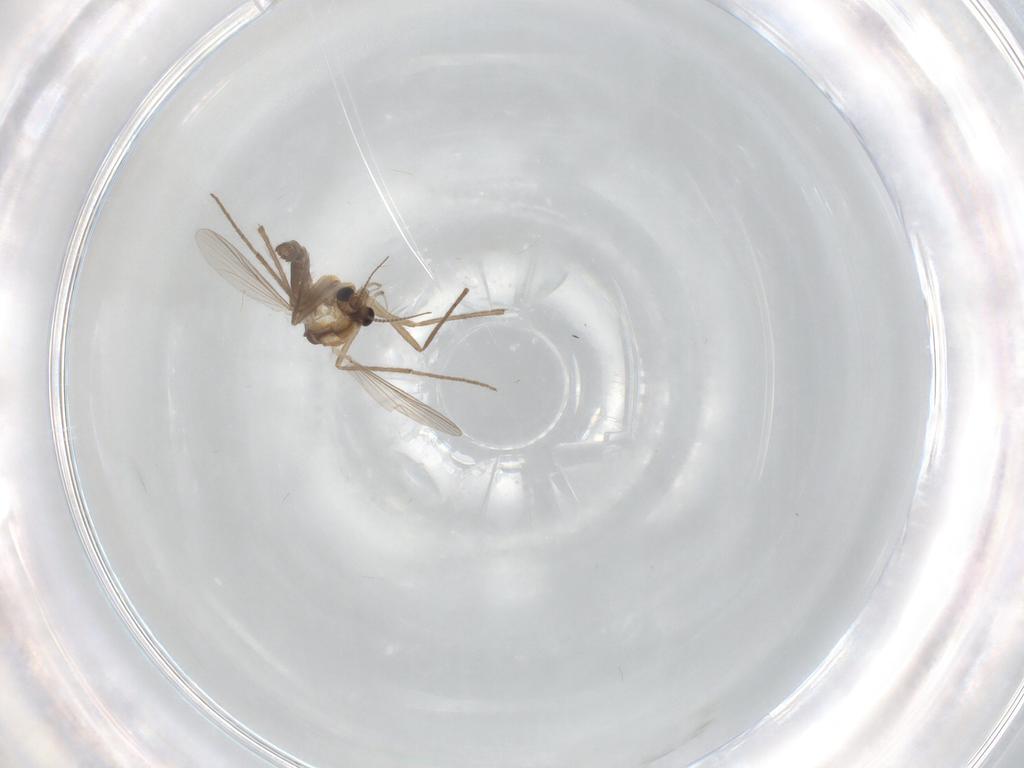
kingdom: Animalia
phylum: Arthropoda
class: Insecta
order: Diptera
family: Chironomidae
